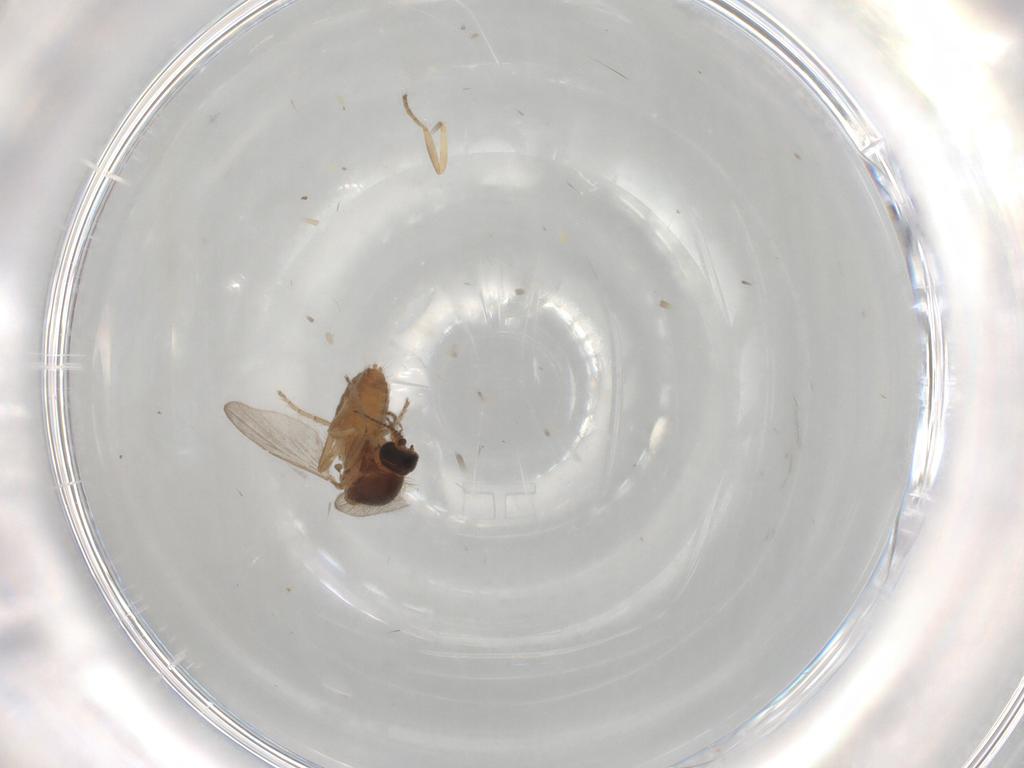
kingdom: Animalia
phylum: Arthropoda
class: Insecta
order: Diptera
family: Ceratopogonidae
